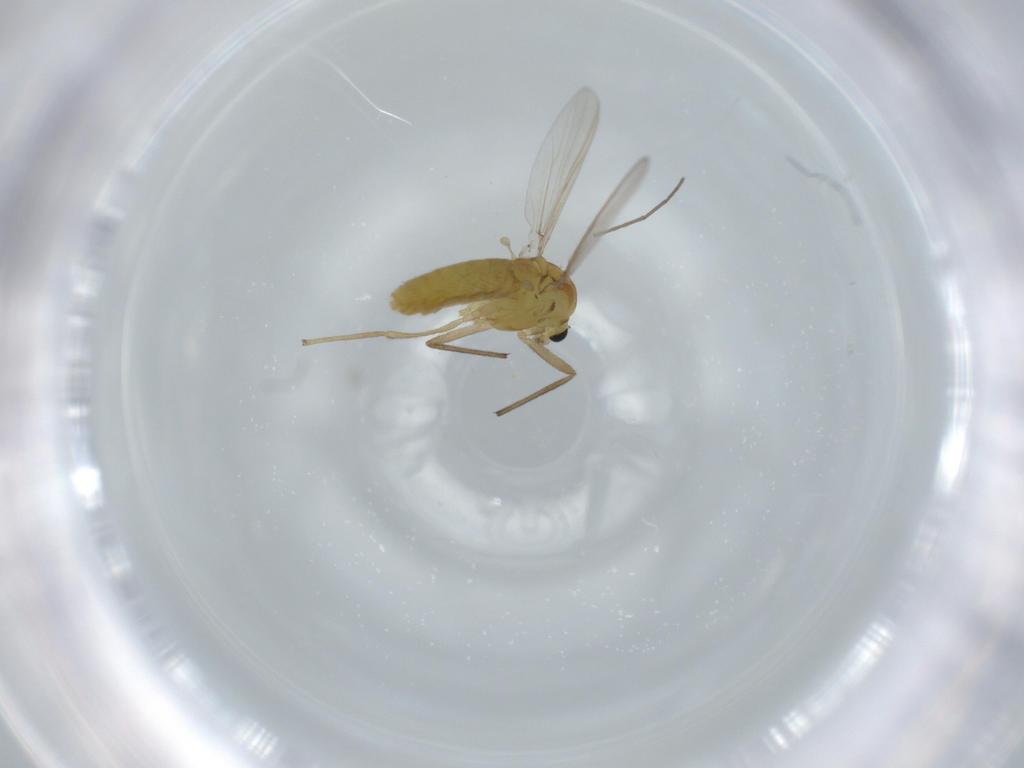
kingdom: Animalia
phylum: Arthropoda
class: Insecta
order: Diptera
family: Chironomidae
